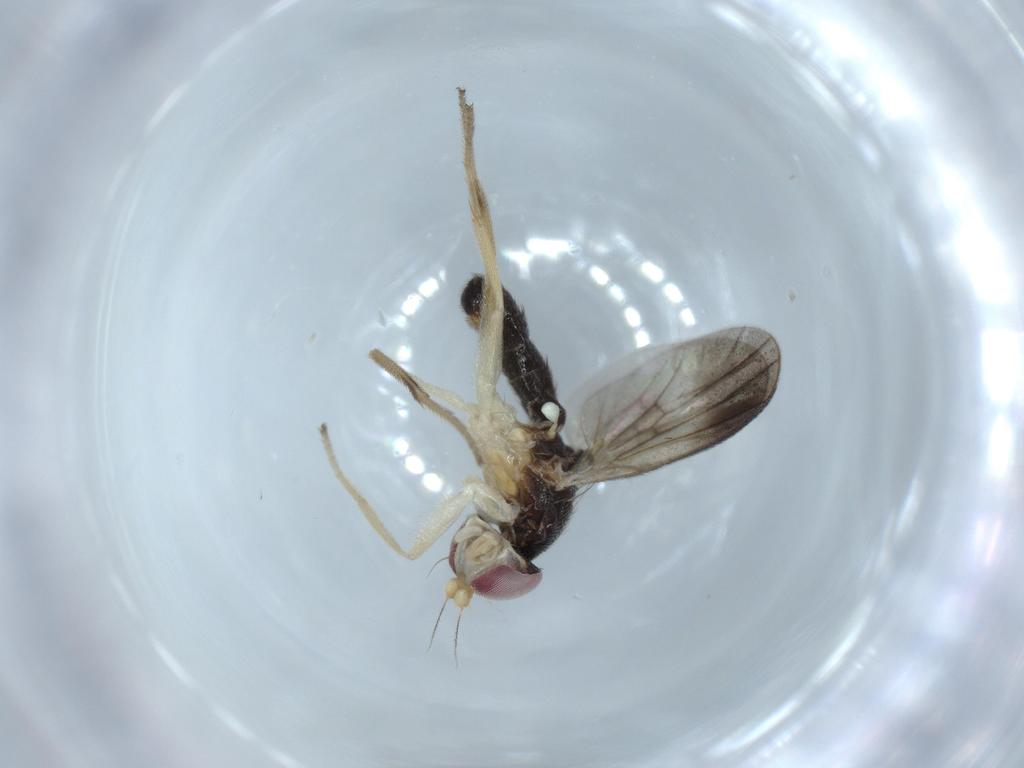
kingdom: Animalia
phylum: Arthropoda
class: Insecta
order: Diptera
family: Clusiidae
